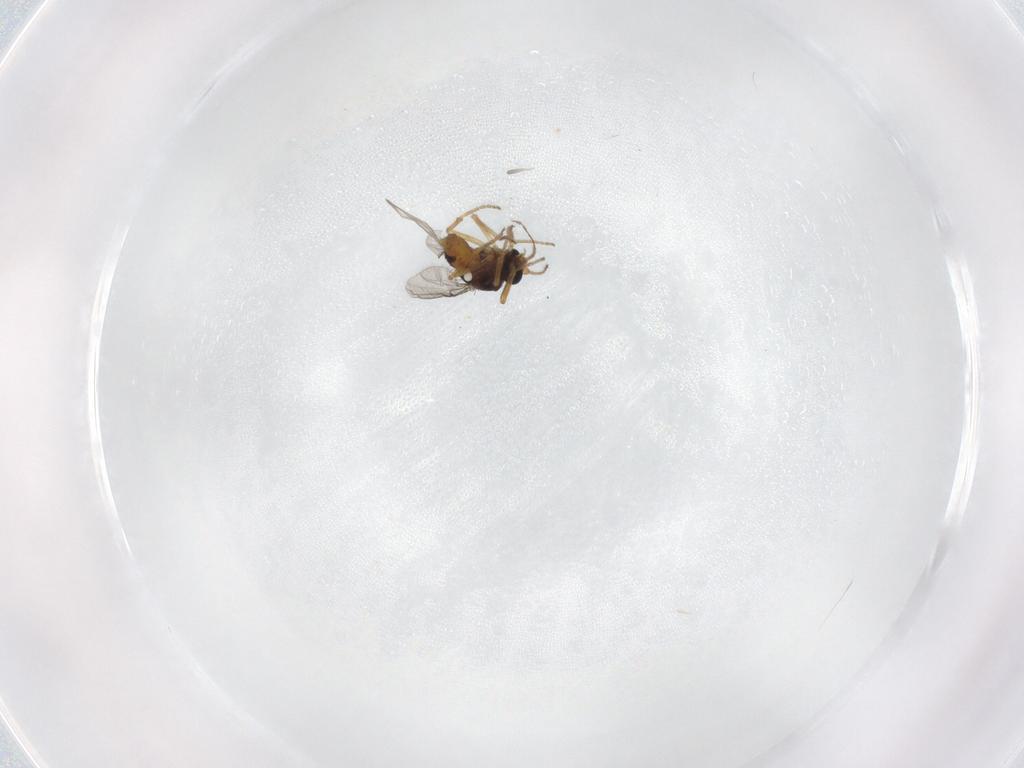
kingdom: Animalia
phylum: Arthropoda
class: Insecta
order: Diptera
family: Ceratopogonidae
